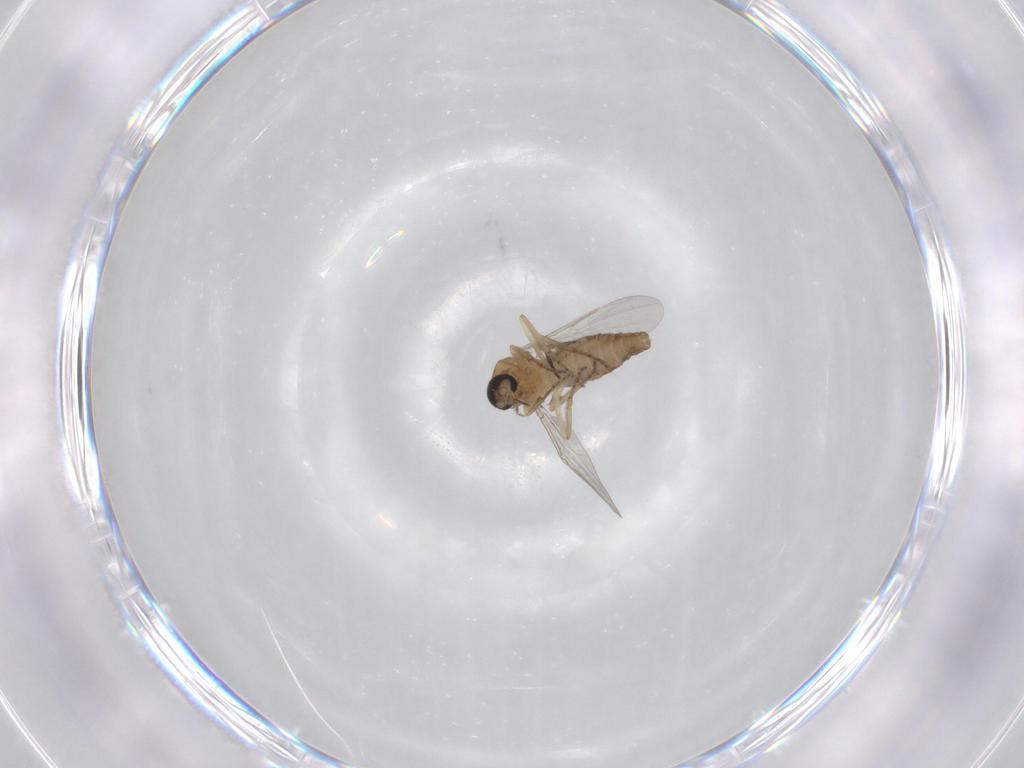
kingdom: Animalia
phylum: Arthropoda
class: Insecta
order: Diptera
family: Ceratopogonidae
